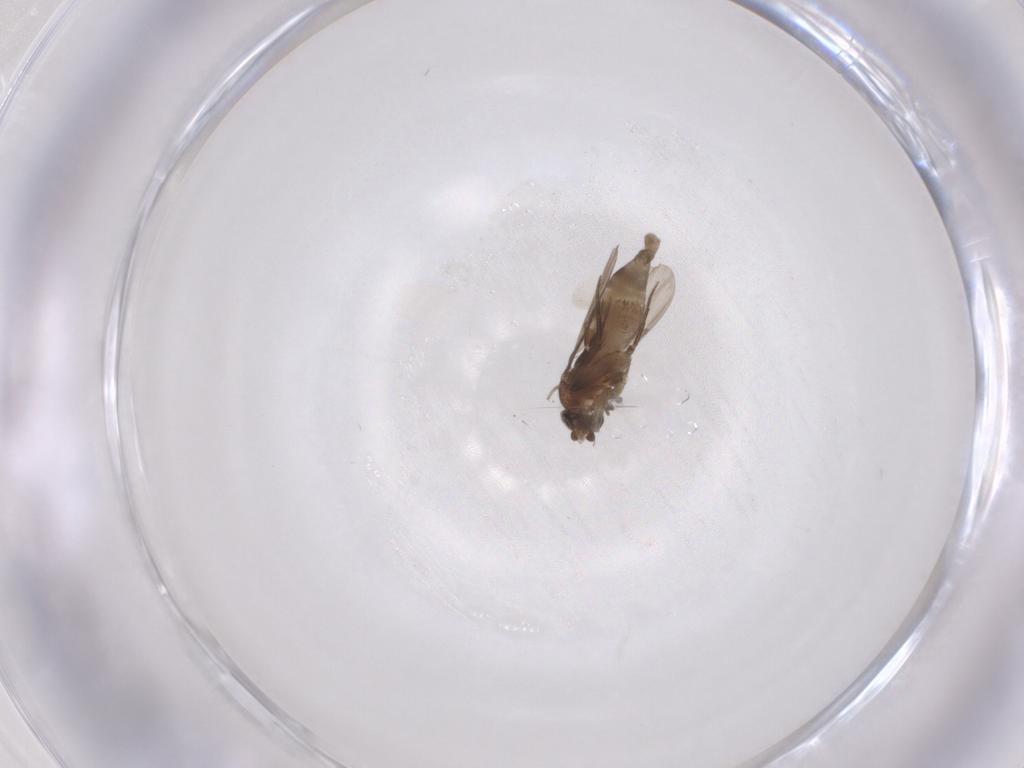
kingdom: Animalia
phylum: Arthropoda
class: Insecta
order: Diptera
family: Phoridae
